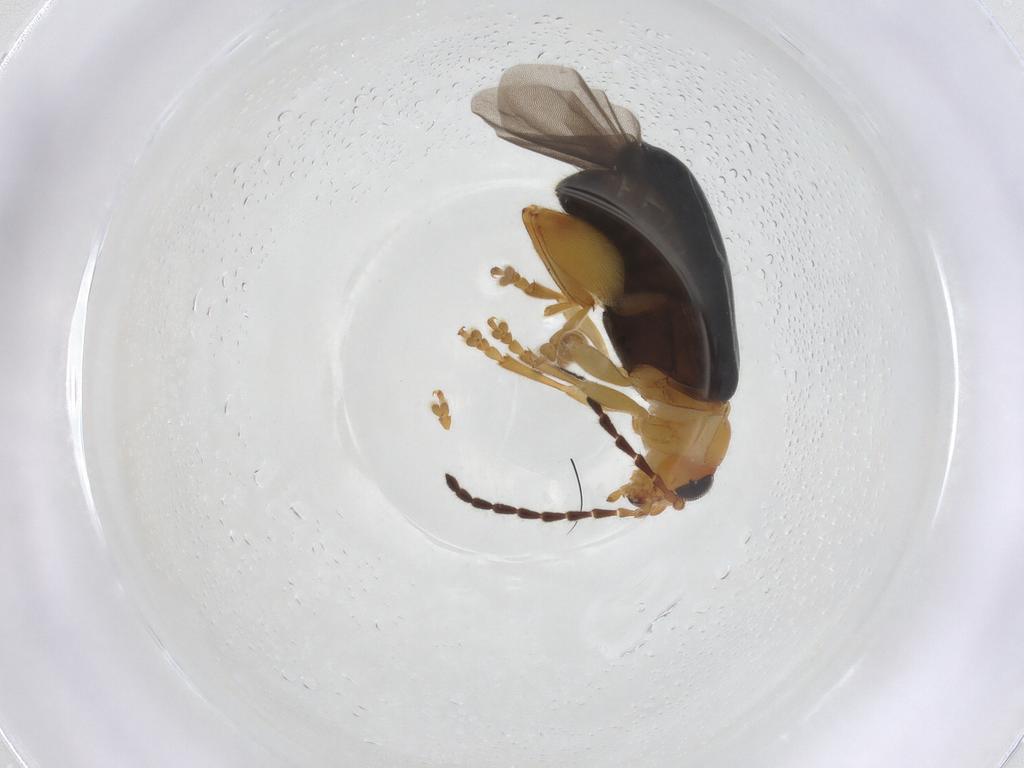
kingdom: Animalia
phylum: Arthropoda
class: Insecta
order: Coleoptera
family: Chrysomelidae
